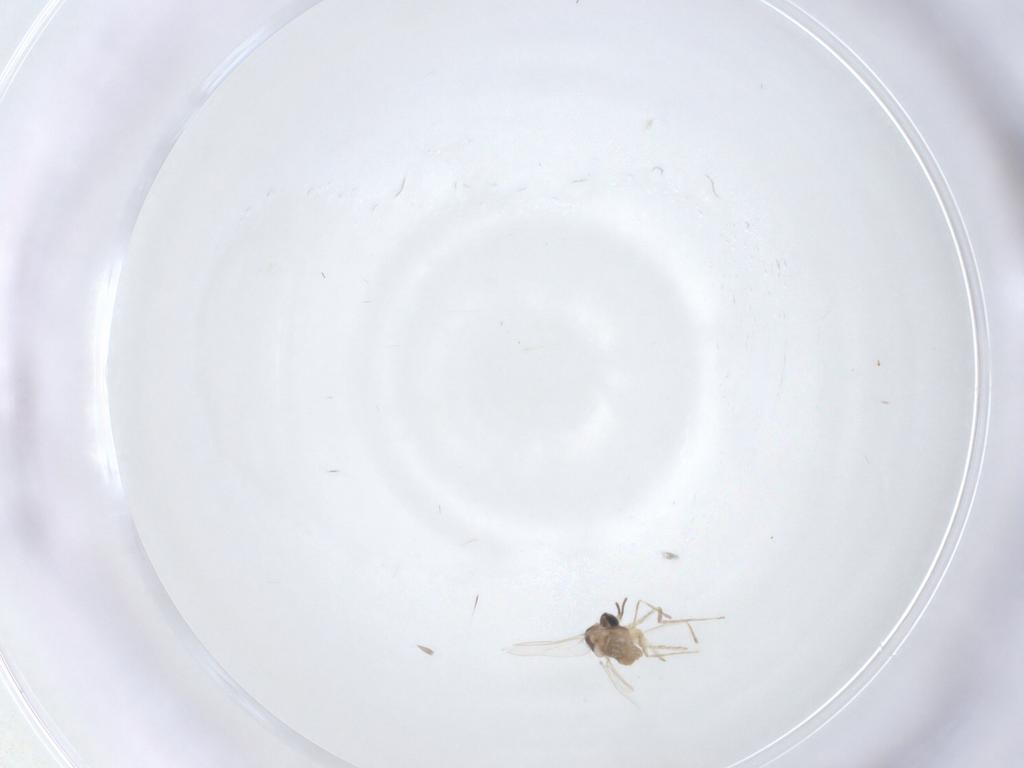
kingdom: Animalia
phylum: Arthropoda
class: Insecta
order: Diptera
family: Cecidomyiidae
